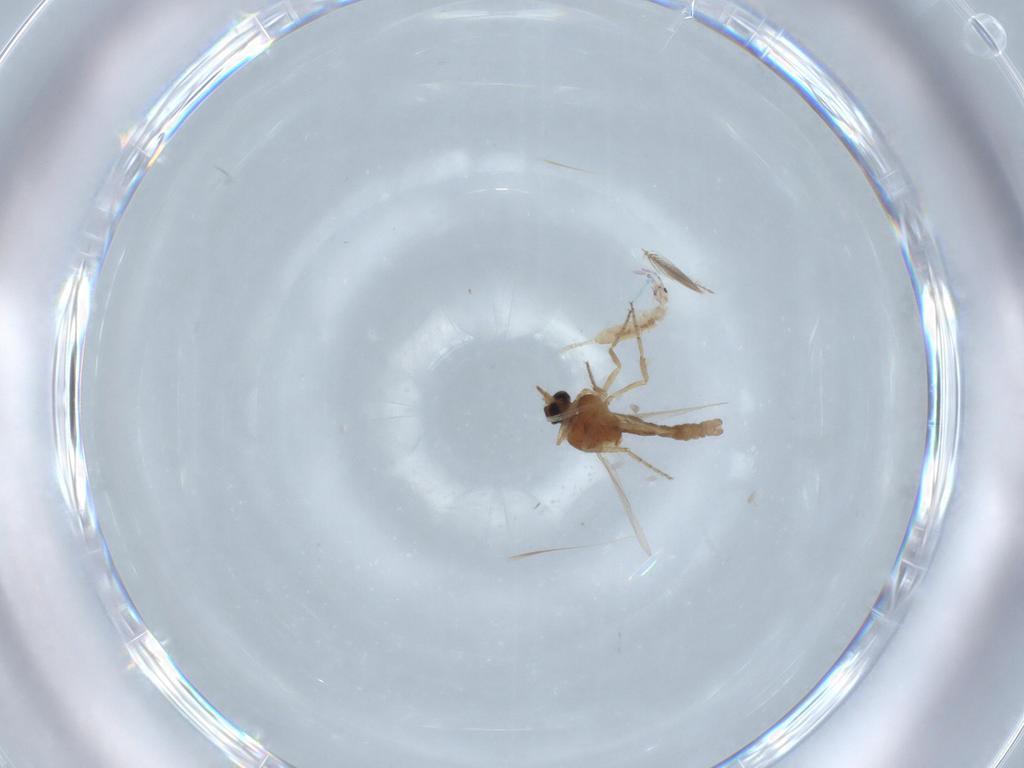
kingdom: Animalia
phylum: Arthropoda
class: Insecta
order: Diptera
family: Ceratopogonidae
